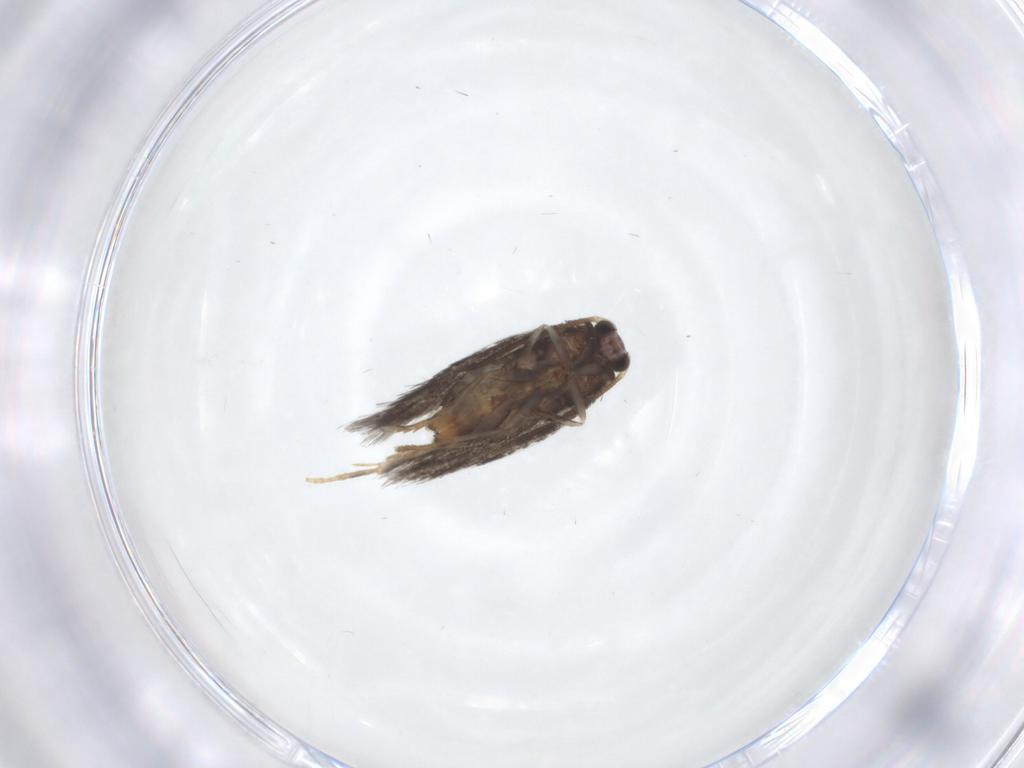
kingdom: Animalia
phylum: Arthropoda
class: Insecta
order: Lepidoptera
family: Nepticulidae
